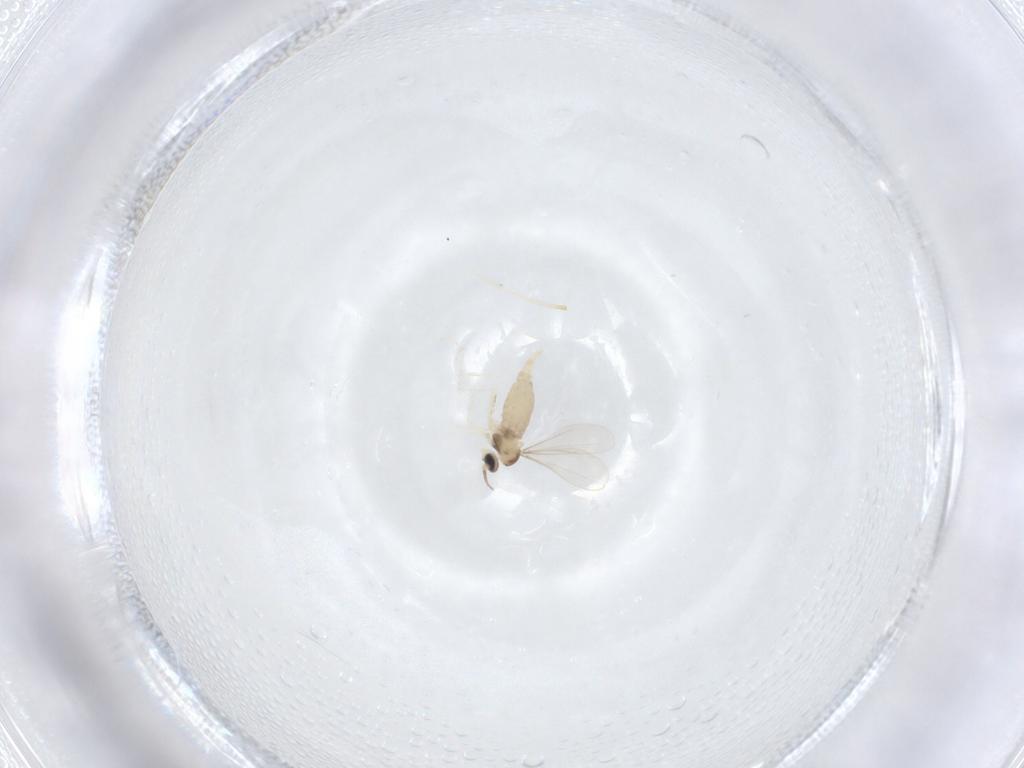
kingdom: Animalia
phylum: Arthropoda
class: Insecta
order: Diptera
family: Cecidomyiidae
